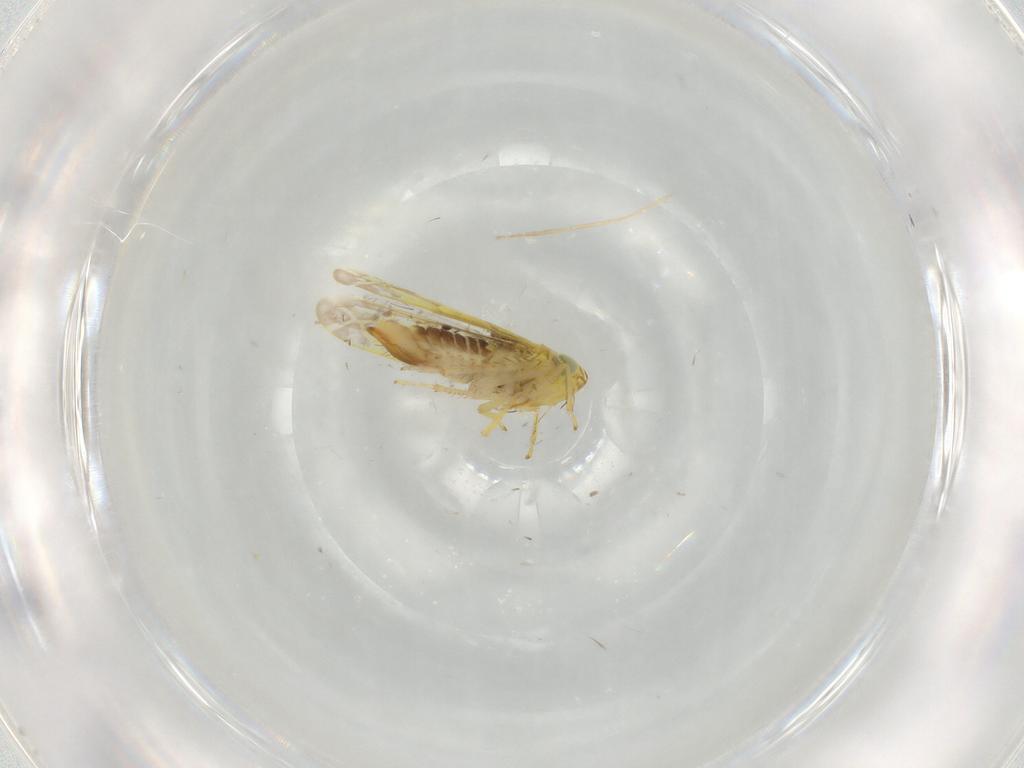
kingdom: Animalia
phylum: Arthropoda
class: Insecta
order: Hemiptera
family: Cicadellidae
